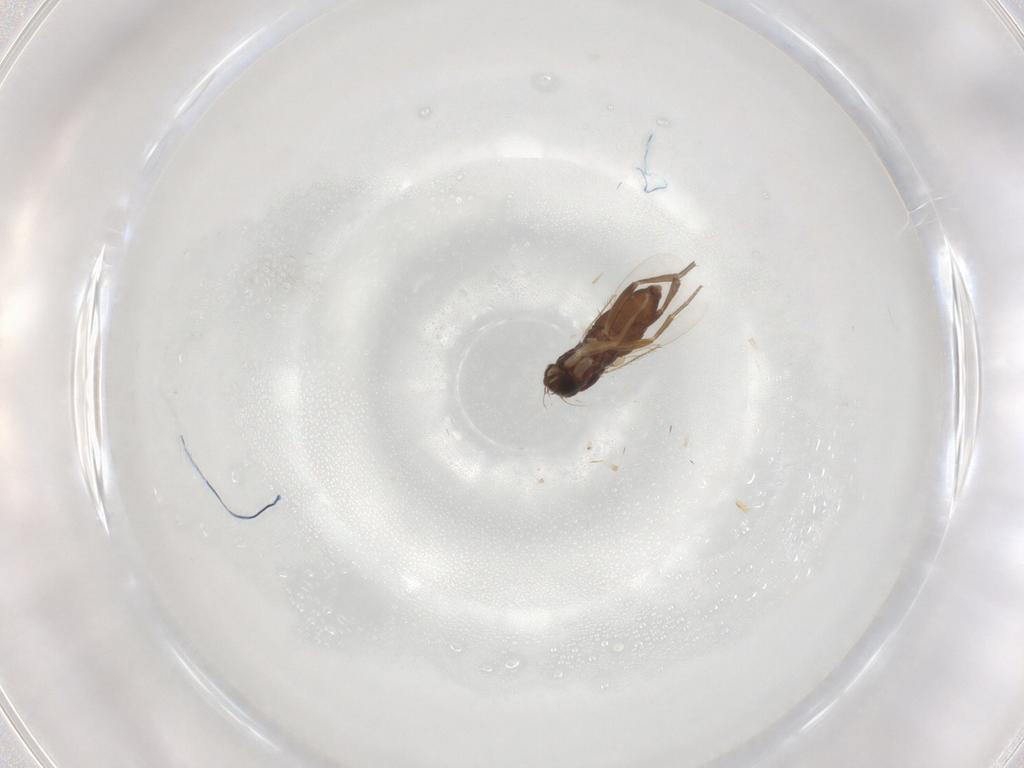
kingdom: Animalia
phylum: Arthropoda
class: Insecta
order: Diptera
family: Phoridae
